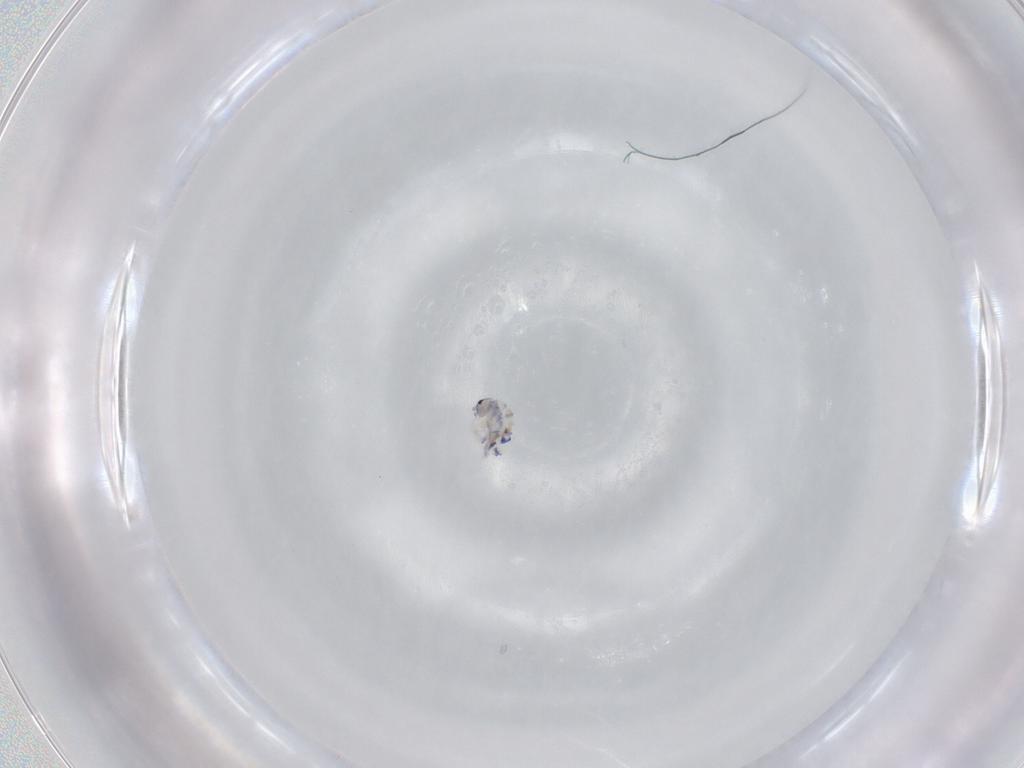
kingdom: Animalia
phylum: Arthropoda
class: Collembola
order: Entomobryomorpha
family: Entomobryidae
